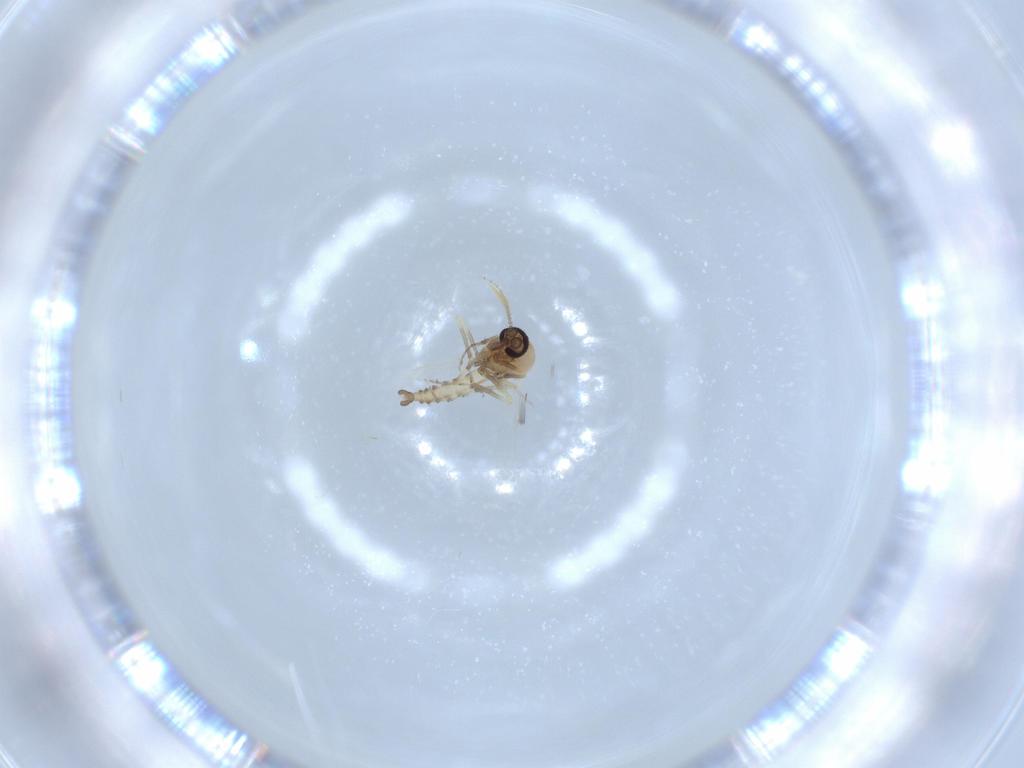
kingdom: Animalia
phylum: Arthropoda
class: Insecta
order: Diptera
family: Ceratopogonidae
